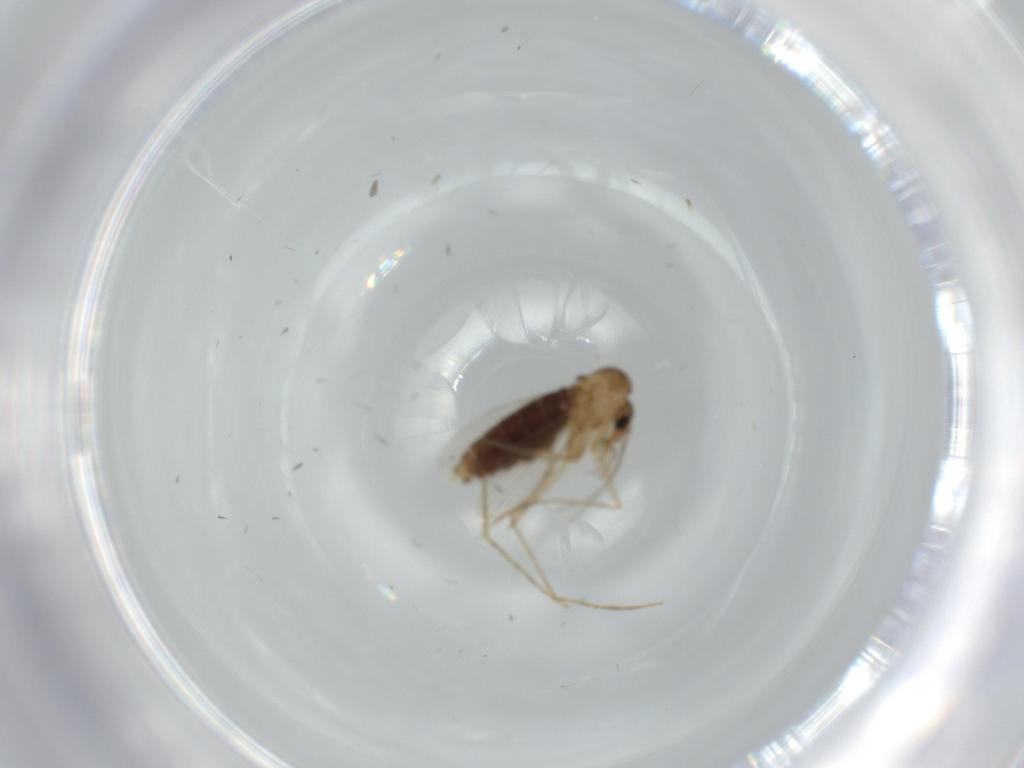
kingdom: Animalia
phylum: Arthropoda
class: Insecta
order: Diptera
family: Psychodidae
